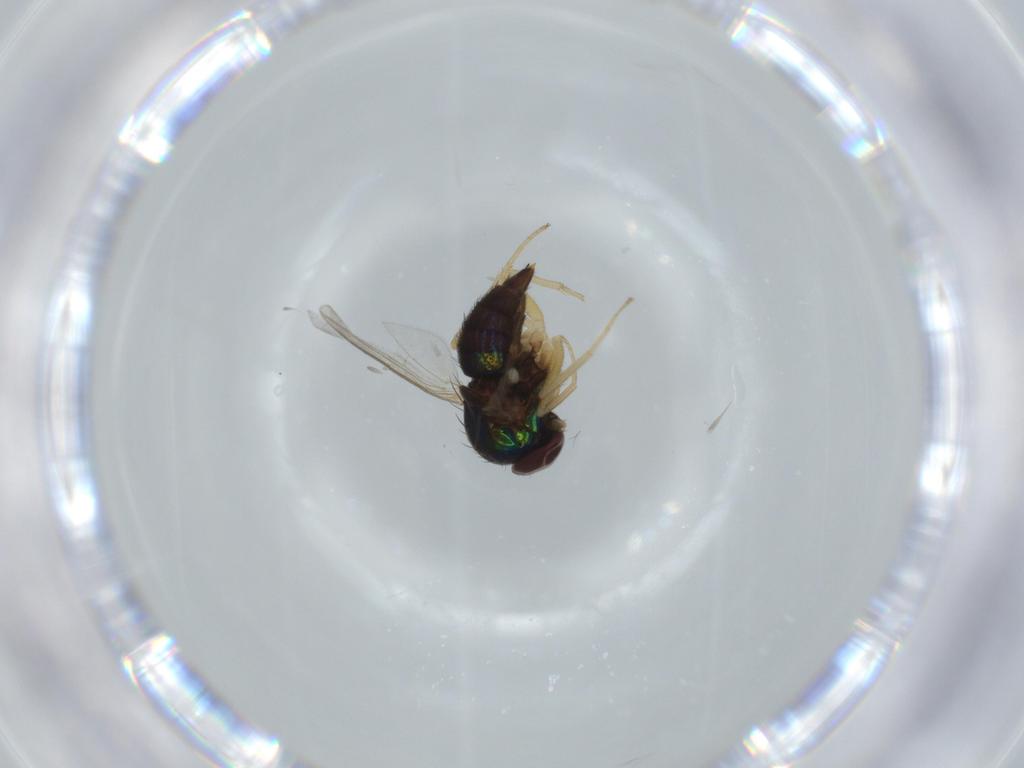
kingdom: Animalia
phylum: Arthropoda
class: Insecta
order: Diptera
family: Dolichopodidae
